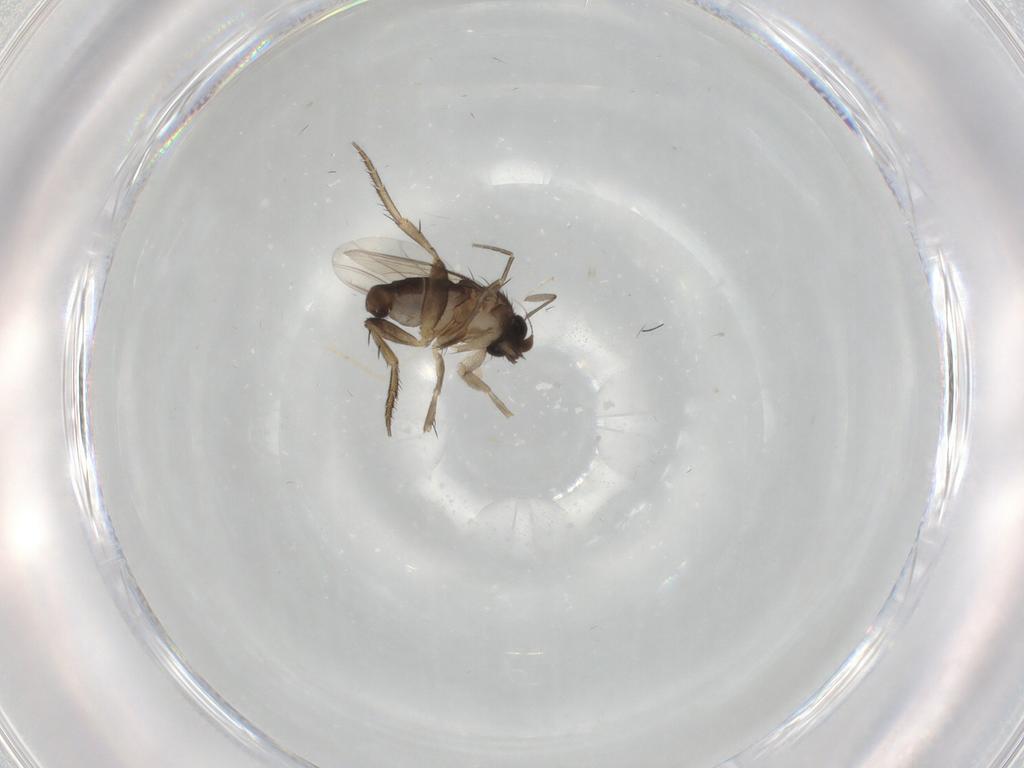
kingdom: Animalia
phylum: Arthropoda
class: Insecta
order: Diptera
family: Phoridae
